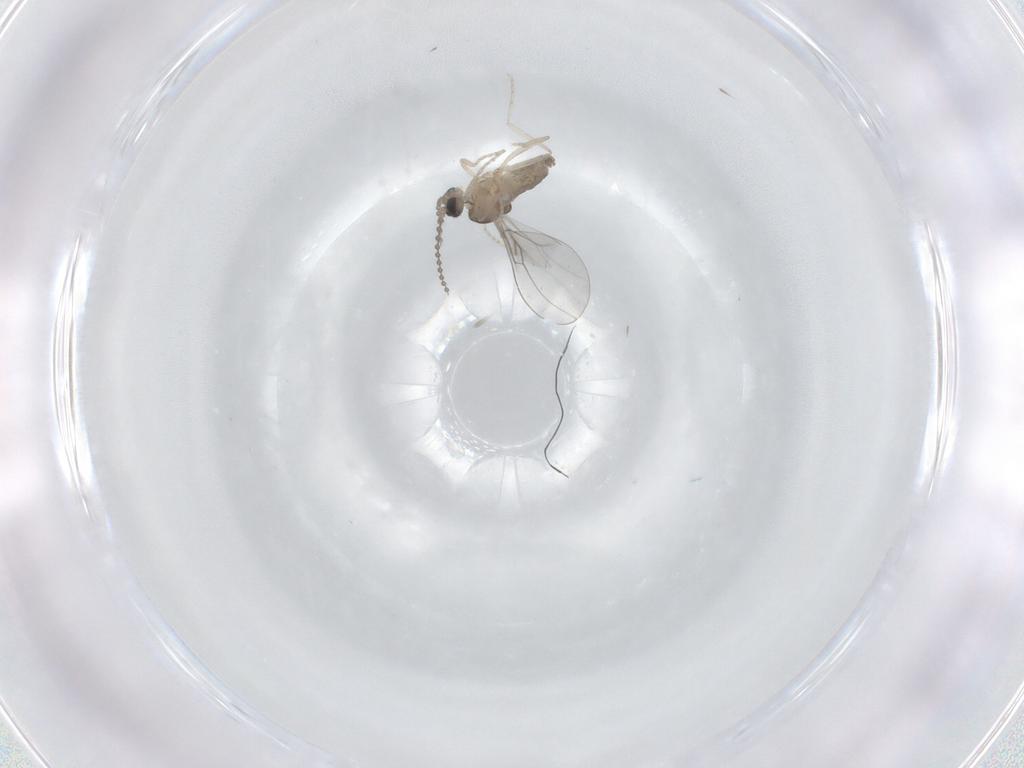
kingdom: Animalia
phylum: Arthropoda
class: Insecta
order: Diptera
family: Cecidomyiidae
